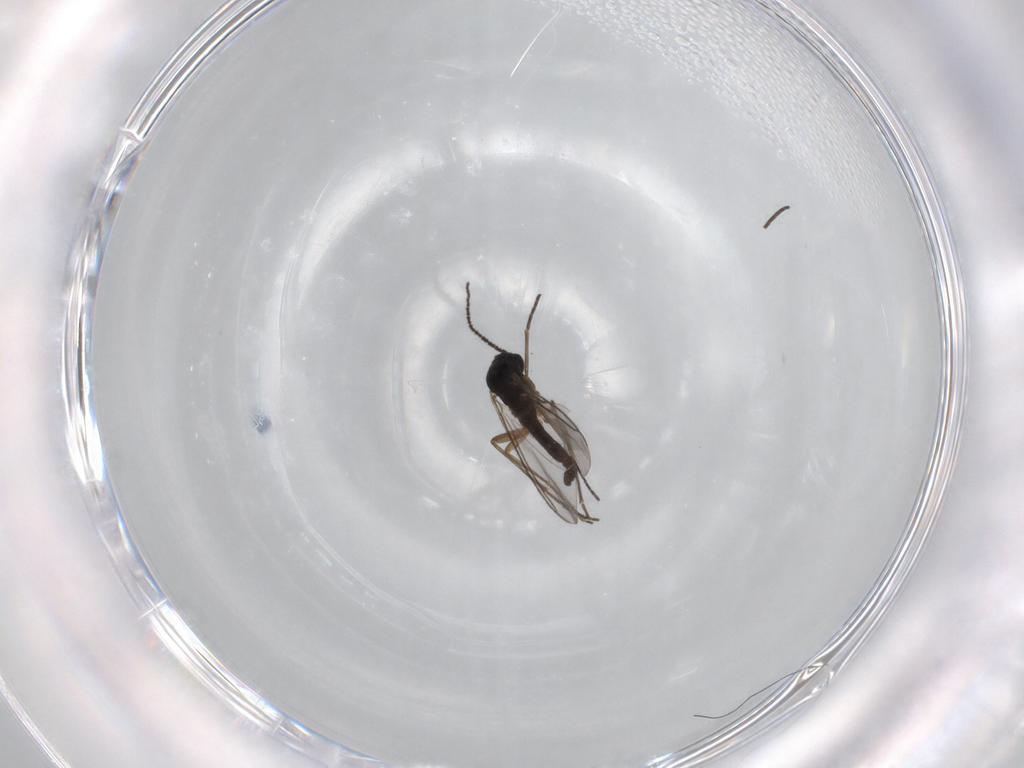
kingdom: Animalia
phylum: Arthropoda
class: Insecta
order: Diptera
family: Sciaridae
